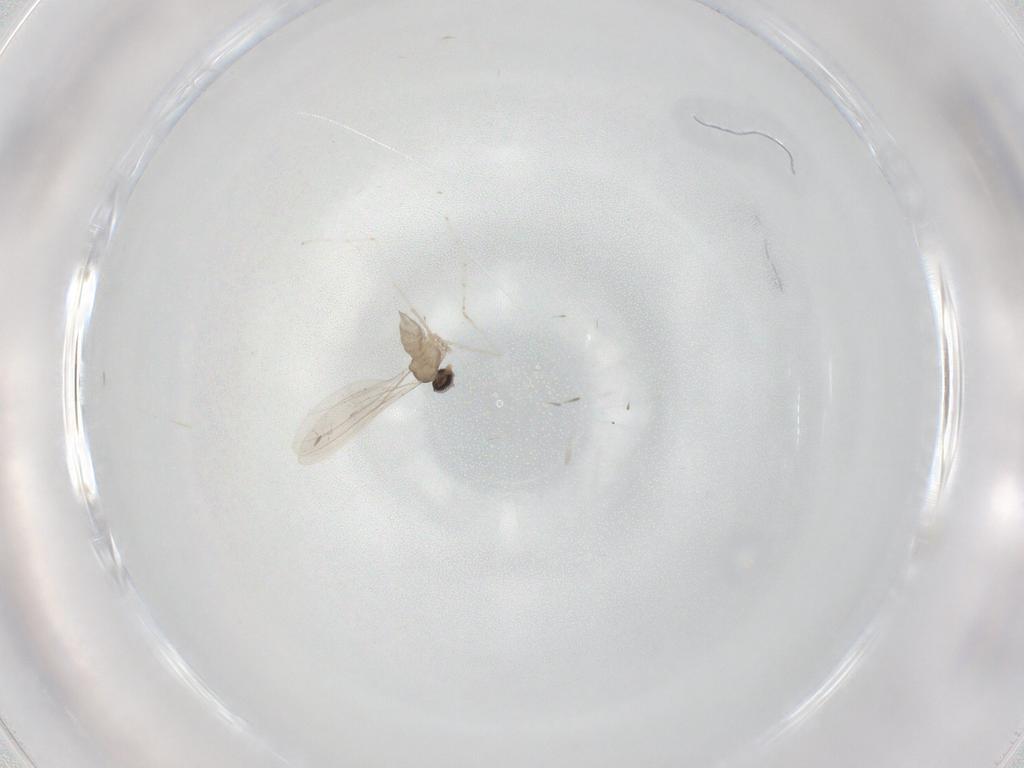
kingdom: Animalia
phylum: Arthropoda
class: Insecta
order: Diptera
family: Cecidomyiidae
